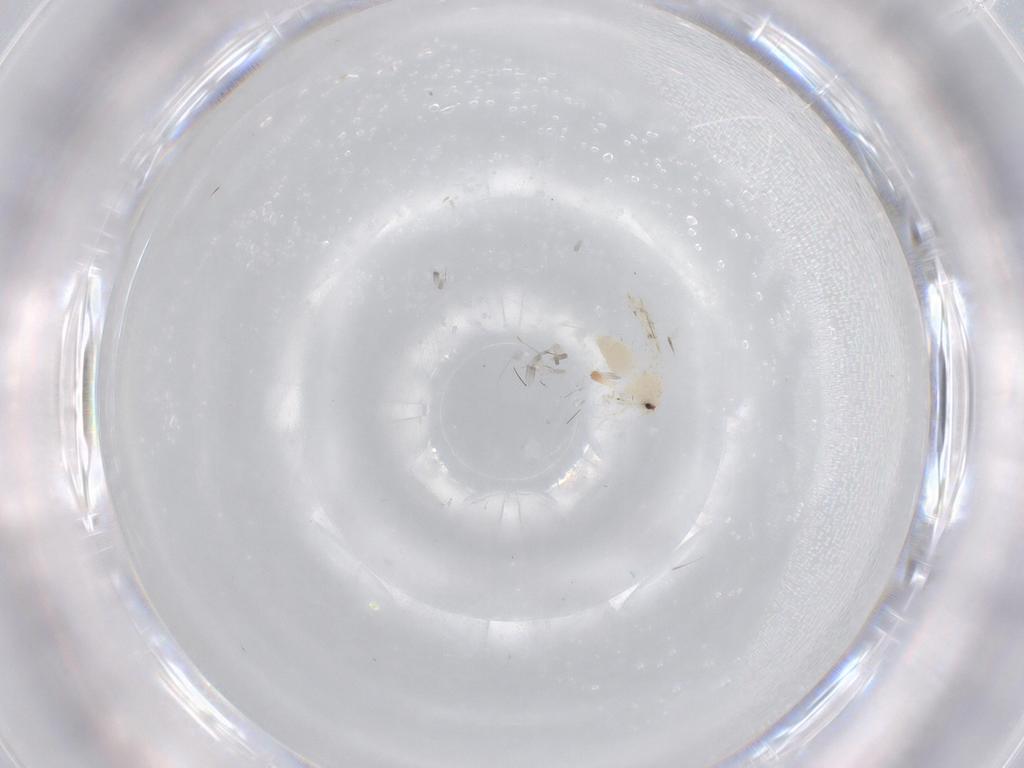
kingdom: Animalia
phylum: Arthropoda
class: Insecta
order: Hemiptera
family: Aleyrodidae
